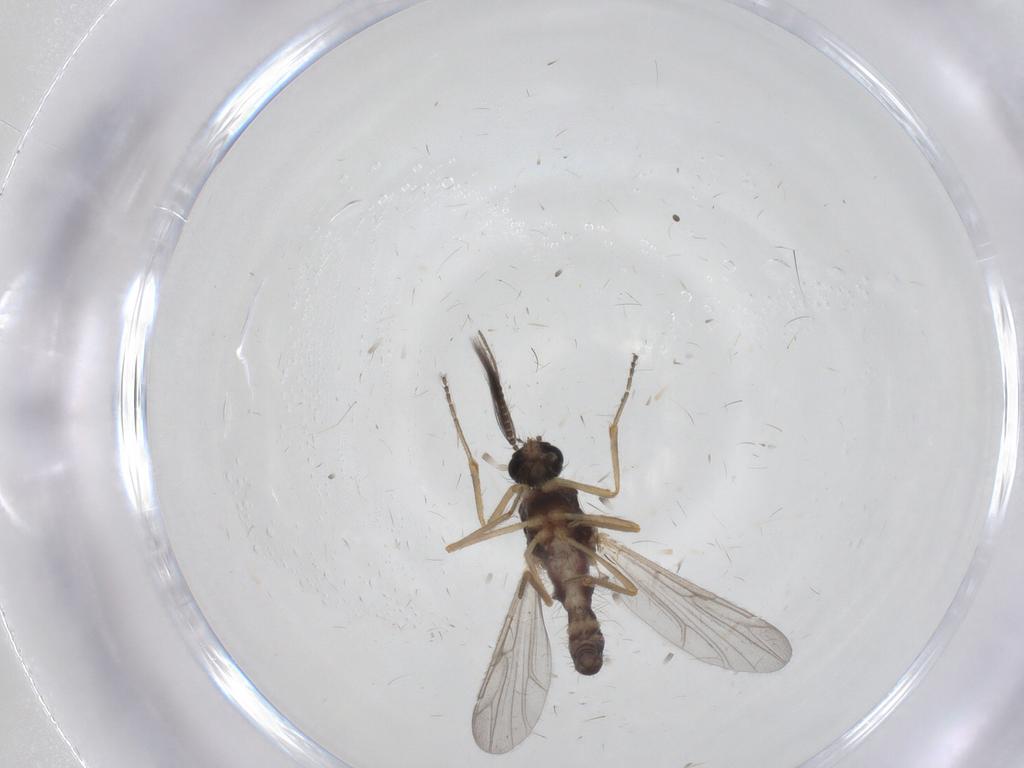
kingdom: Animalia
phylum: Arthropoda
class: Insecta
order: Diptera
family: Ceratopogonidae
